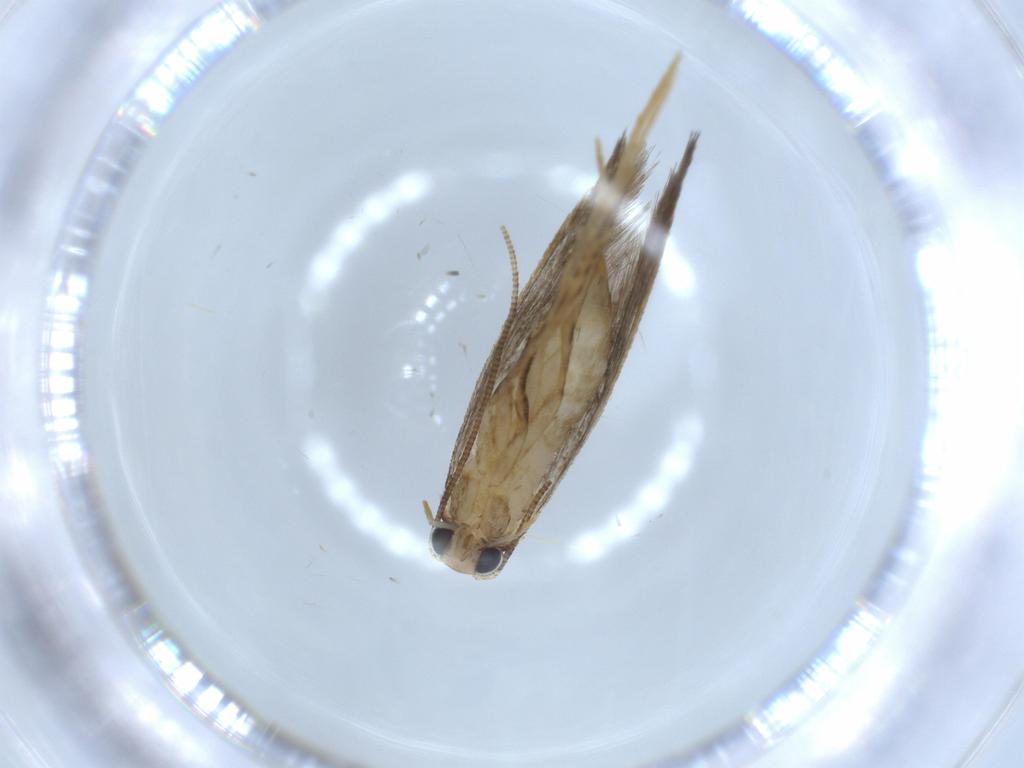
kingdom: Animalia
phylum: Arthropoda
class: Insecta
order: Lepidoptera
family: Tineidae
